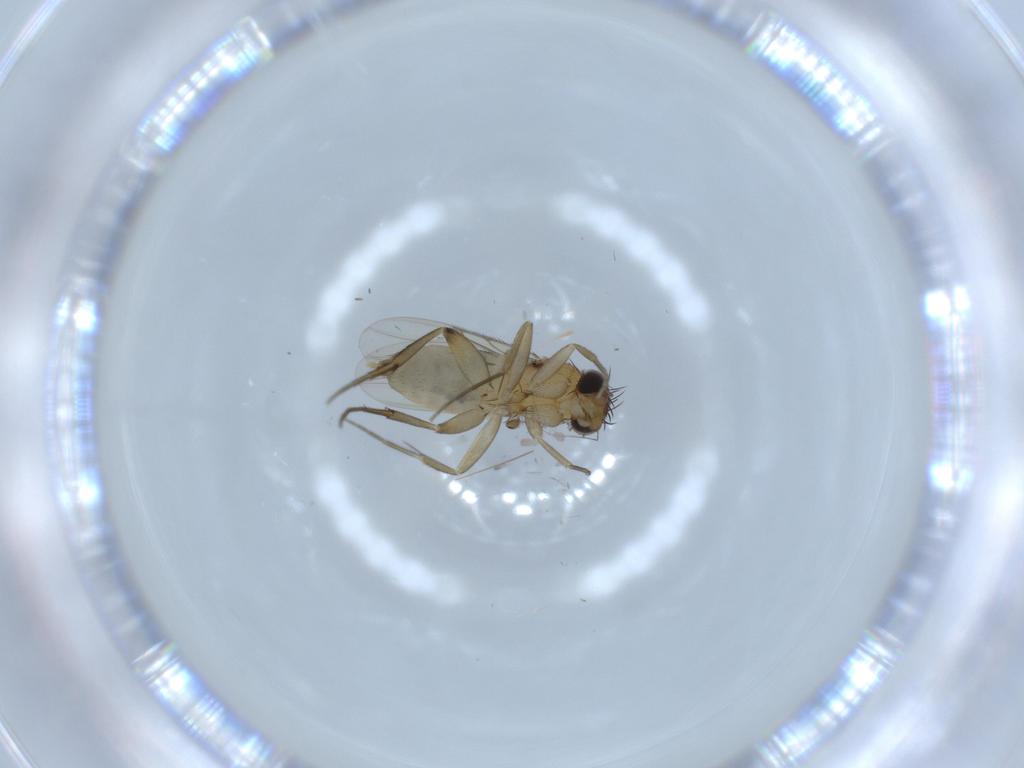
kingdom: Animalia
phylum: Arthropoda
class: Insecta
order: Diptera
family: Phoridae
